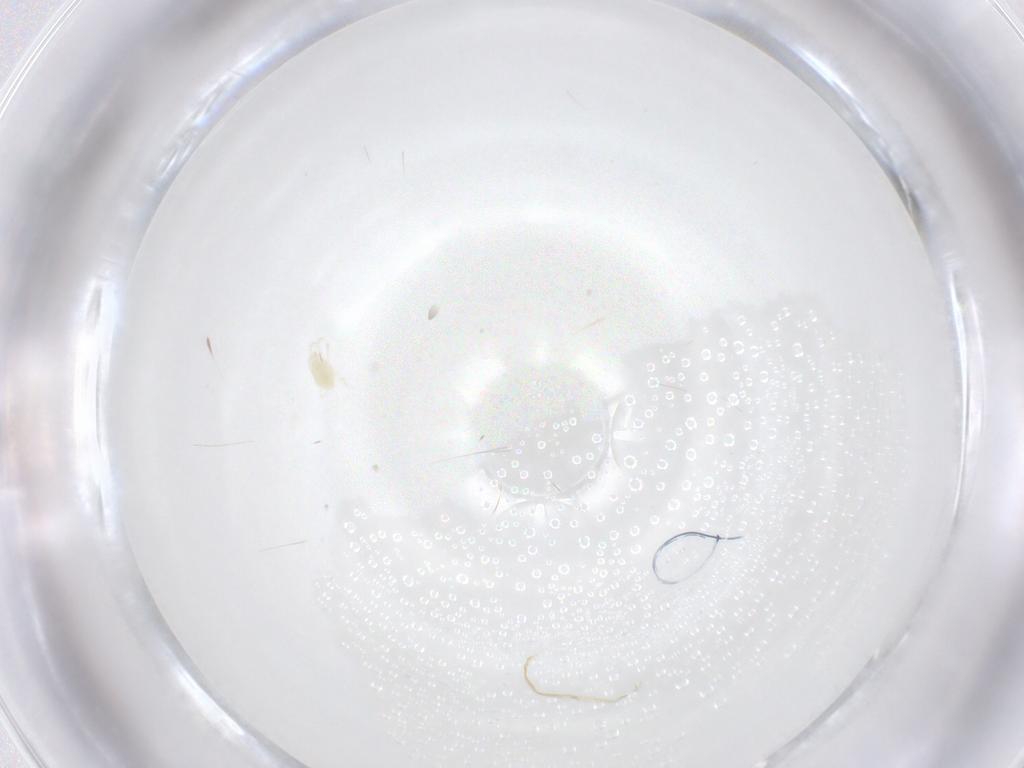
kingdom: Animalia
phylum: Arthropoda
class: Arachnida
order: Trombidiformes
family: Tetranychidae
